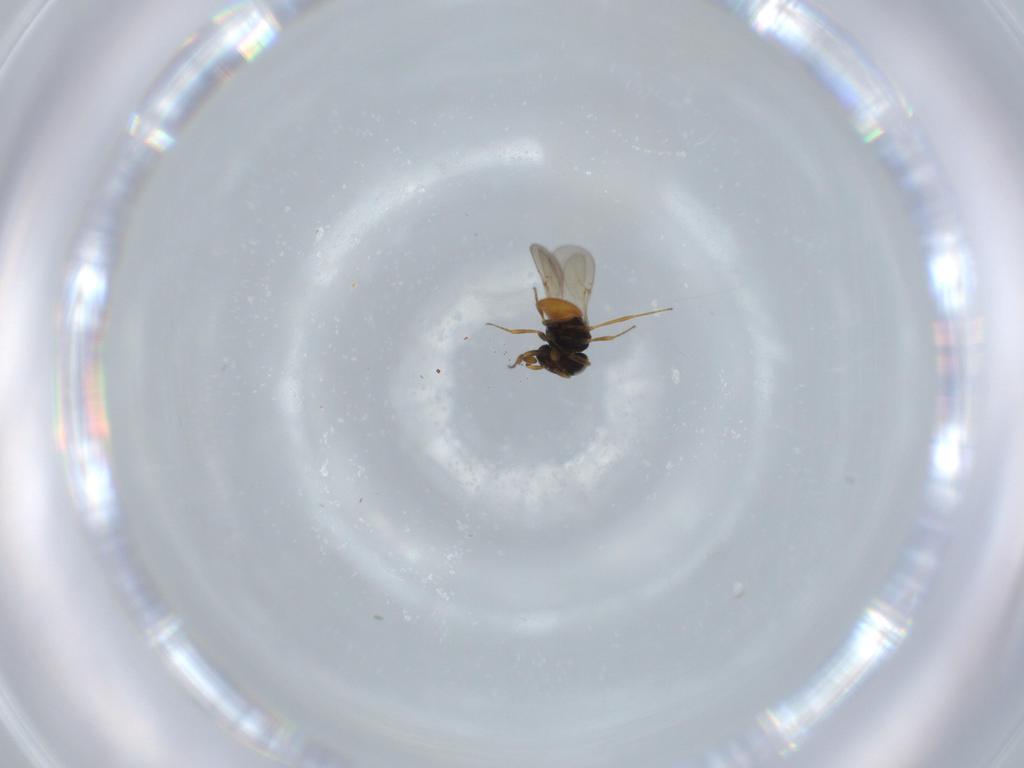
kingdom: Animalia
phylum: Arthropoda
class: Insecta
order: Hymenoptera
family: Scelionidae
